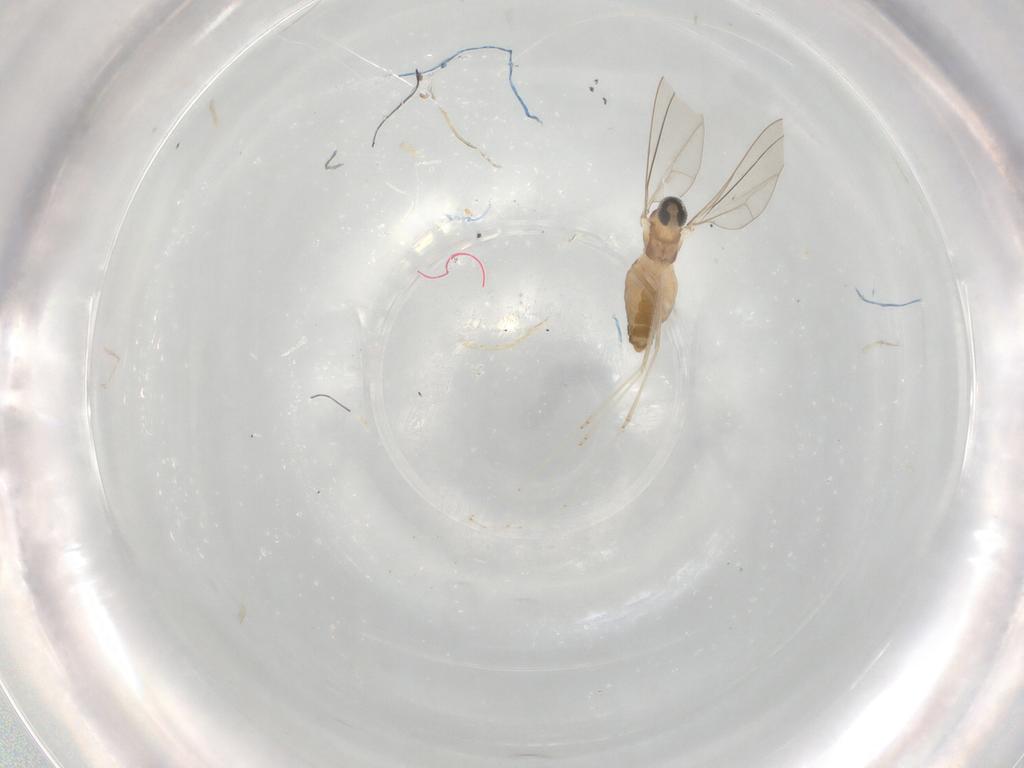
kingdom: Animalia
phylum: Arthropoda
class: Insecta
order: Diptera
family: Cecidomyiidae
